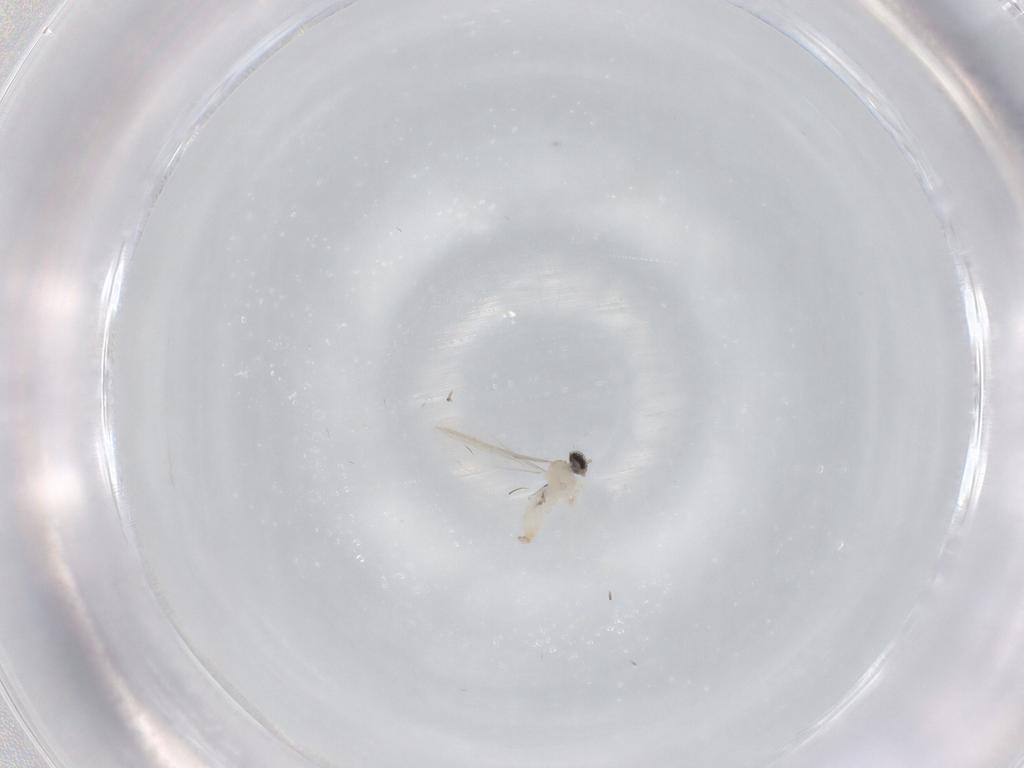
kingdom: Animalia
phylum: Arthropoda
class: Insecta
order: Diptera
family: Cecidomyiidae
